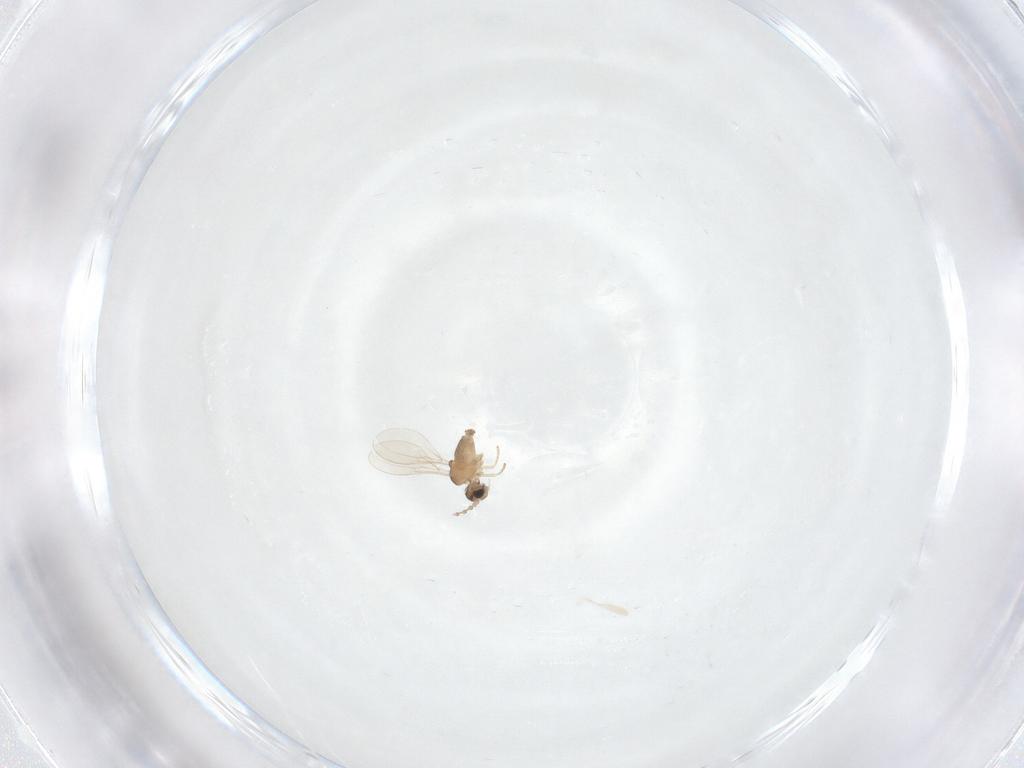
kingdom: Animalia
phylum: Arthropoda
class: Insecta
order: Diptera
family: Cecidomyiidae
